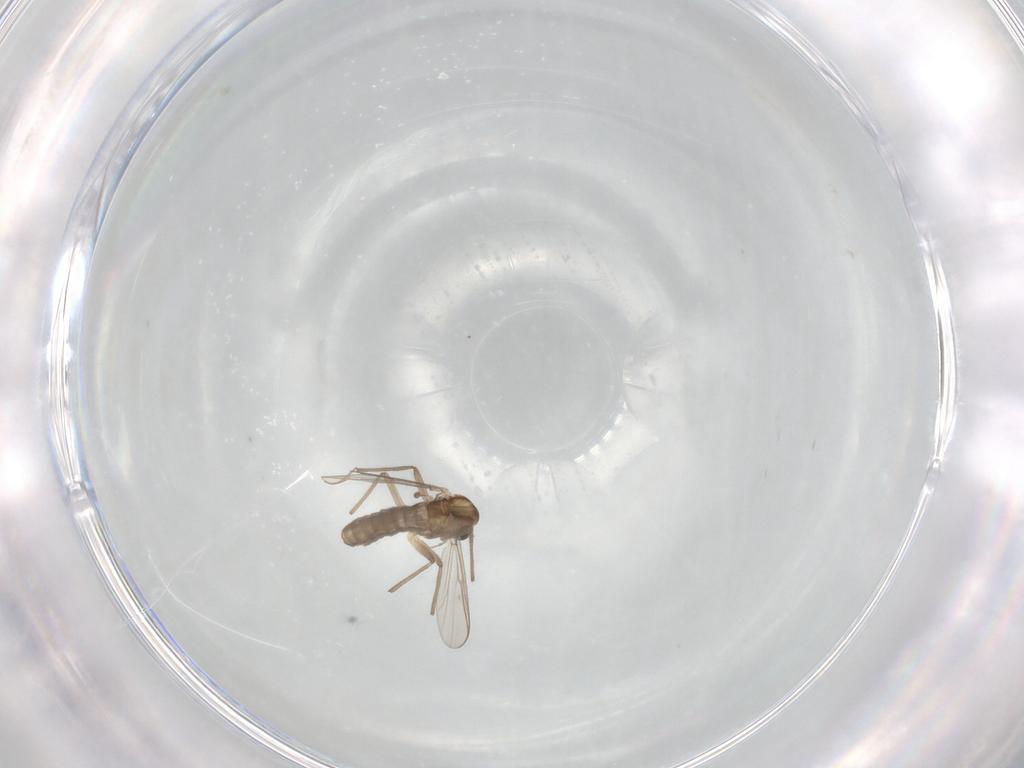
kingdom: Animalia
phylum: Arthropoda
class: Insecta
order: Diptera
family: Chironomidae
